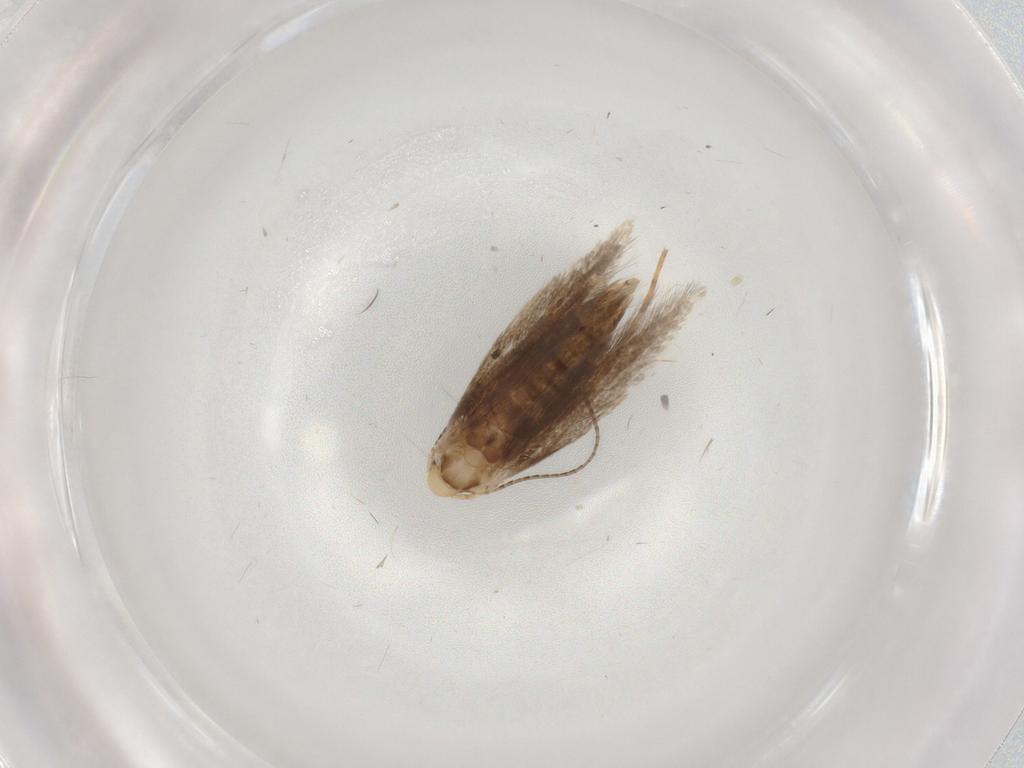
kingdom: Animalia
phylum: Arthropoda
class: Insecta
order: Lepidoptera
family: Gracillariidae
